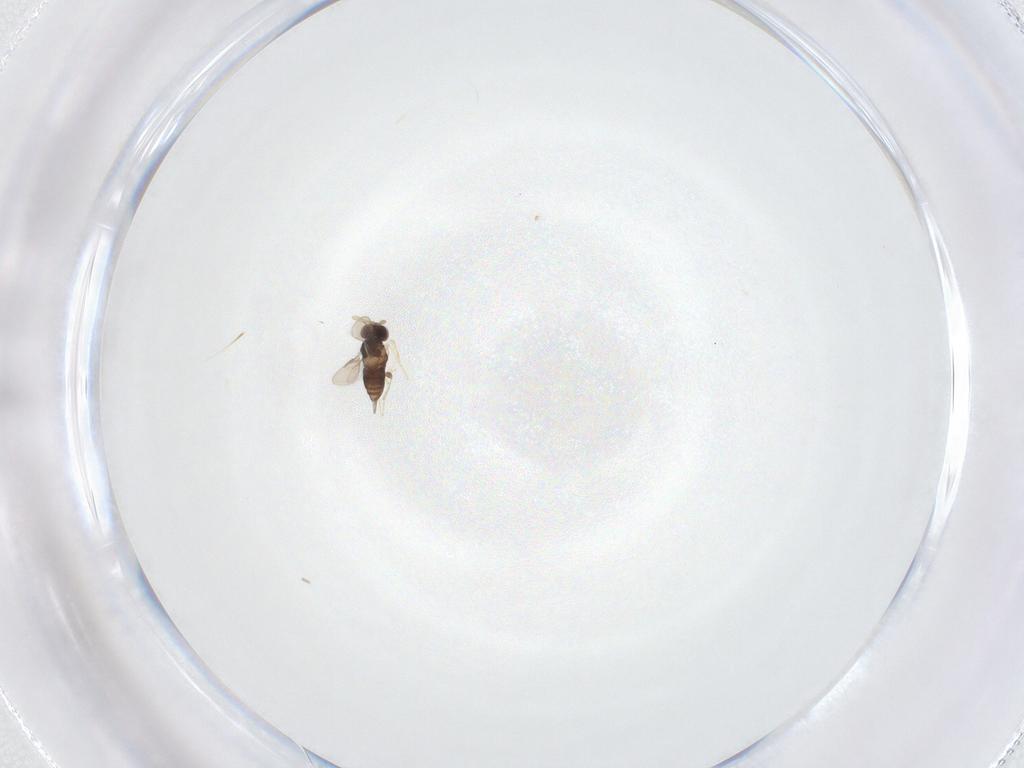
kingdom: Animalia
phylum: Arthropoda
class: Insecta
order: Hymenoptera
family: Aphelinidae
